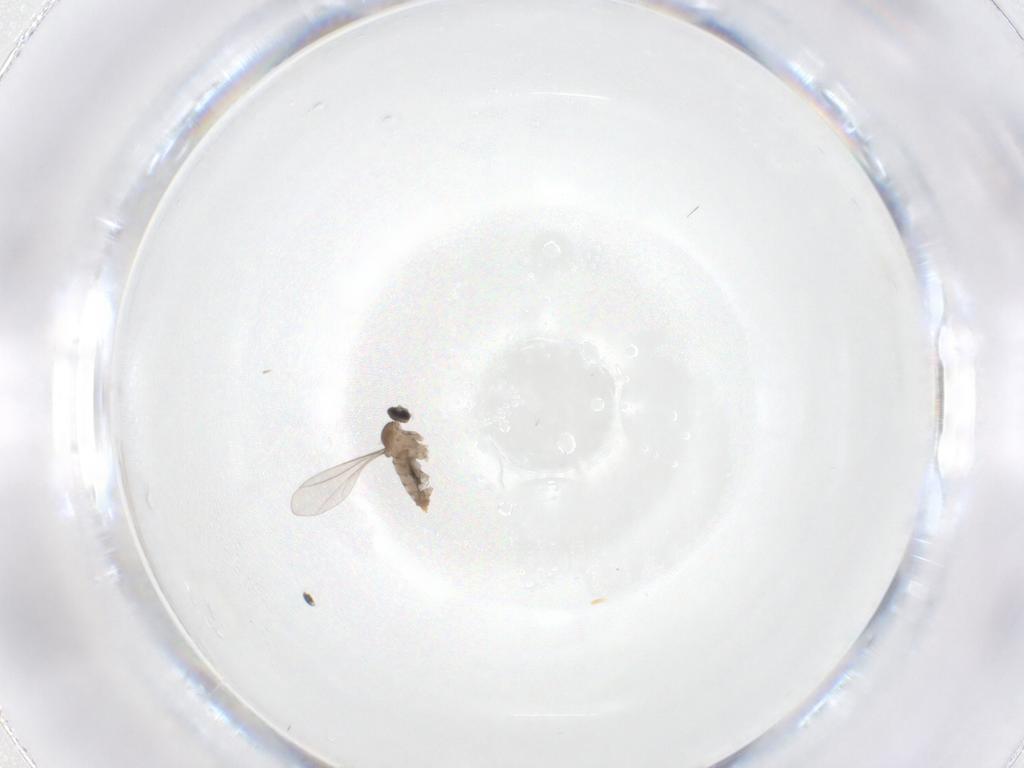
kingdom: Animalia
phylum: Arthropoda
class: Insecta
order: Diptera
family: Cecidomyiidae
